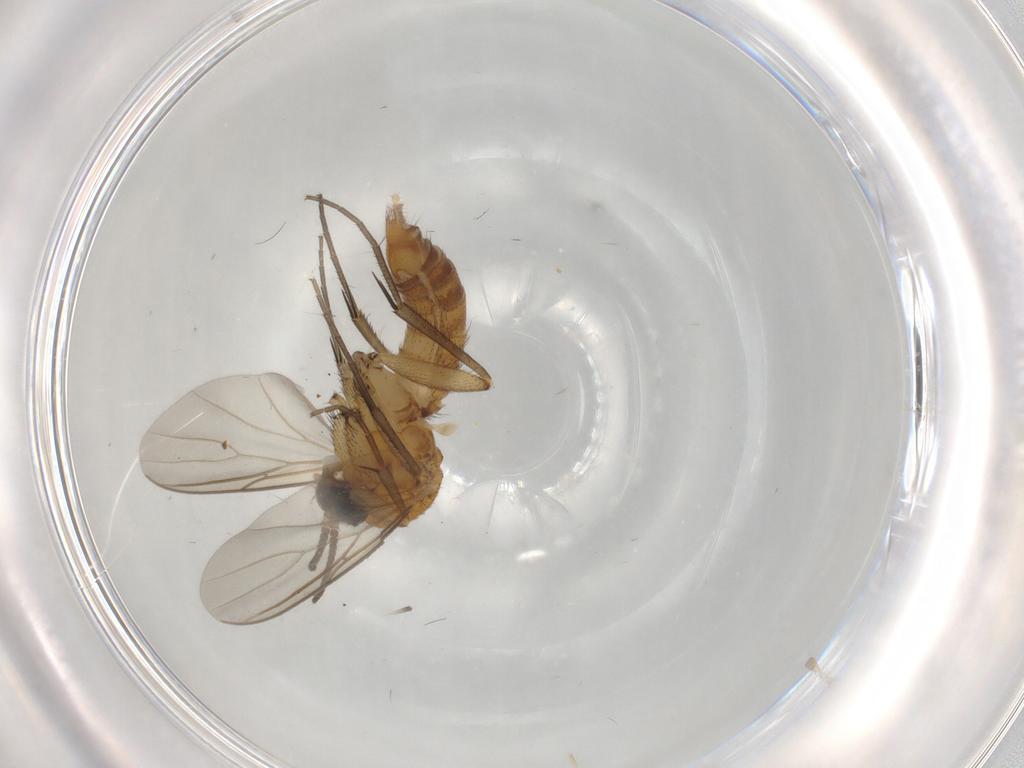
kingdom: Animalia
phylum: Arthropoda
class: Insecta
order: Diptera
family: Mycetophilidae
